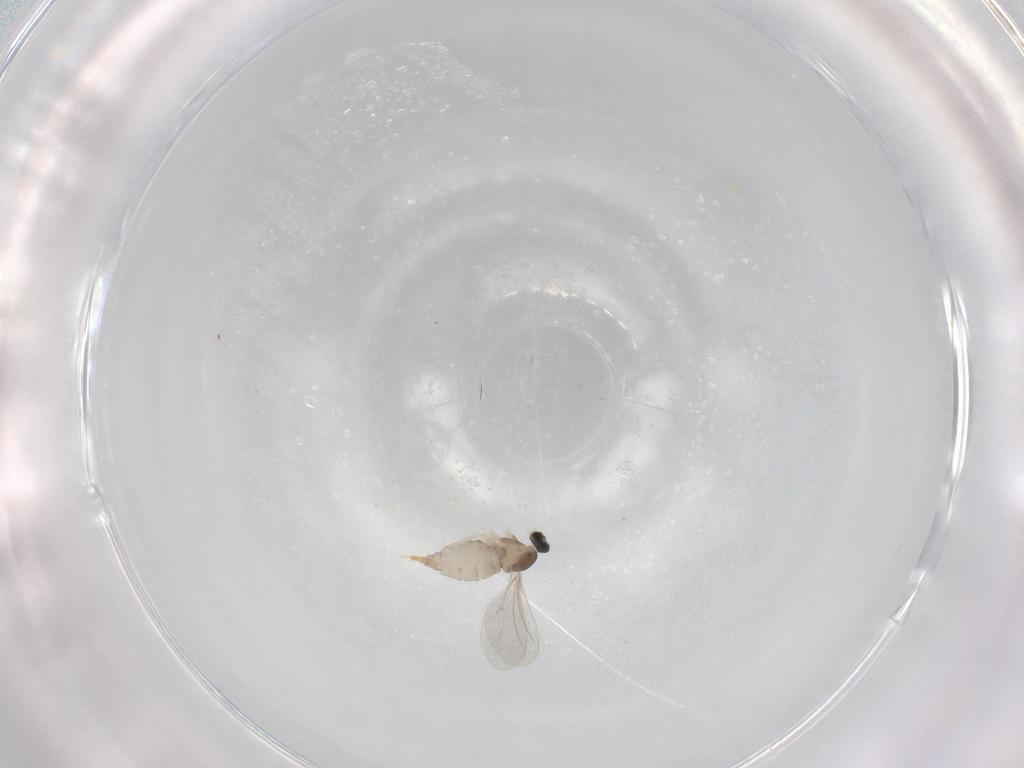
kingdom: Animalia
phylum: Arthropoda
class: Insecta
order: Diptera
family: Cecidomyiidae
